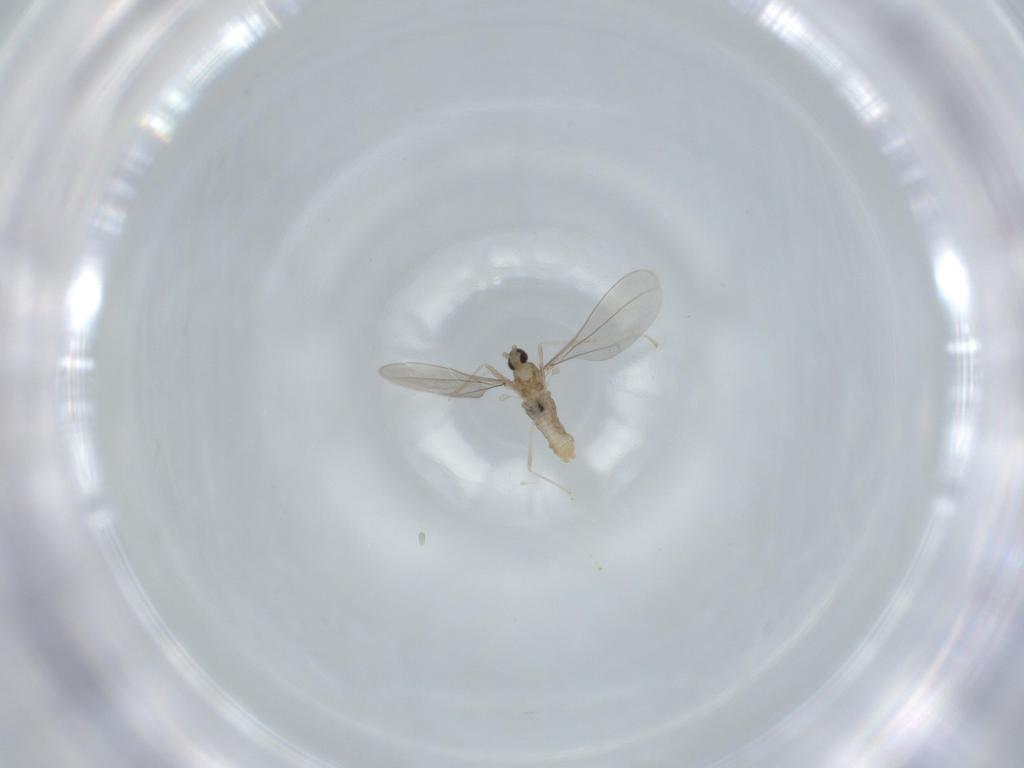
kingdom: Animalia
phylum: Arthropoda
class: Insecta
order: Diptera
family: Cecidomyiidae
